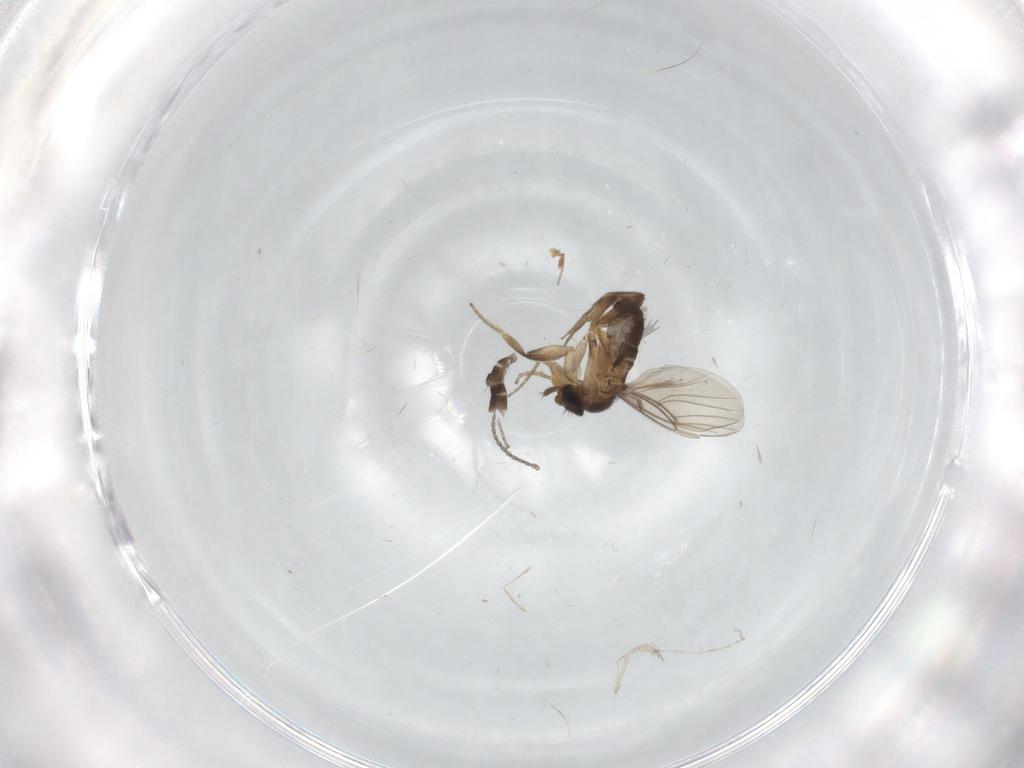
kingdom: Animalia
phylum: Arthropoda
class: Insecta
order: Diptera
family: Phoridae
